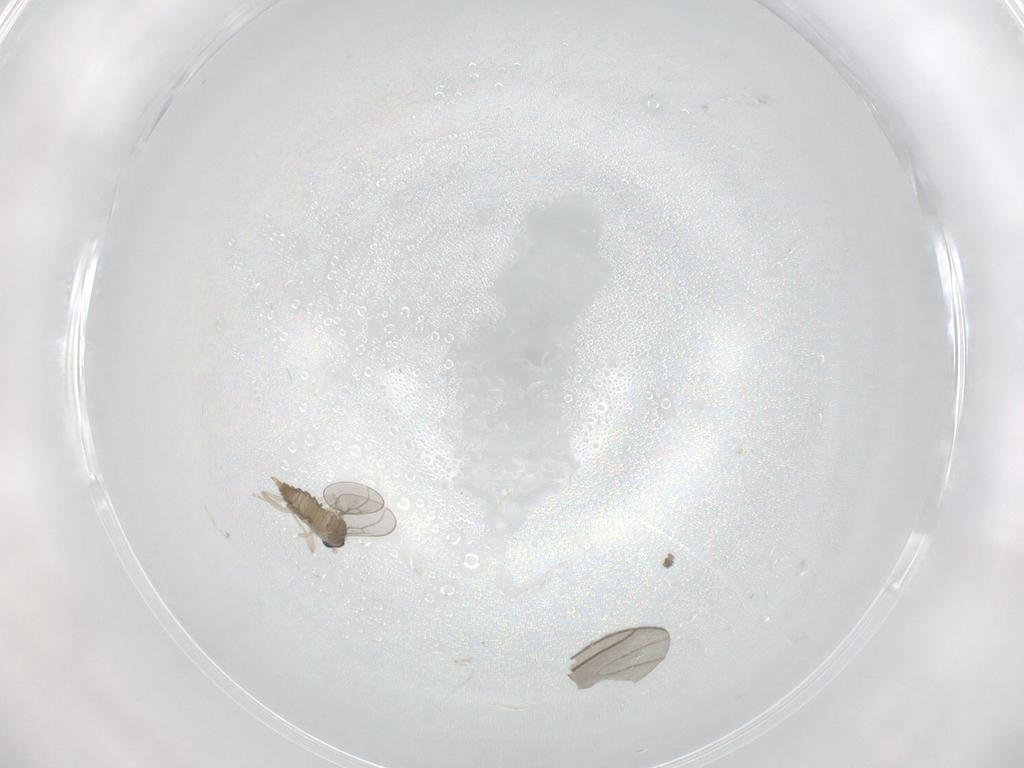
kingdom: Animalia
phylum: Arthropoda
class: Insecta
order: Diptera
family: Cecidomyiidae
